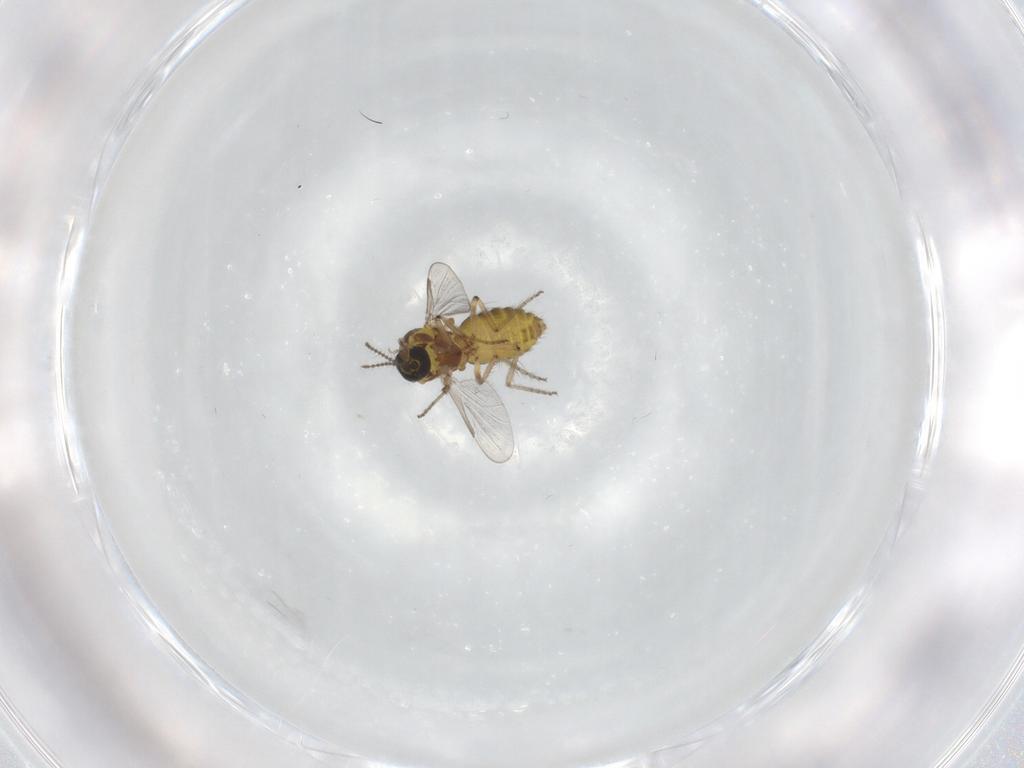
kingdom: Animalia
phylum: Arthropoda
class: Insecta
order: Diptera
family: Ceratopogonidae
